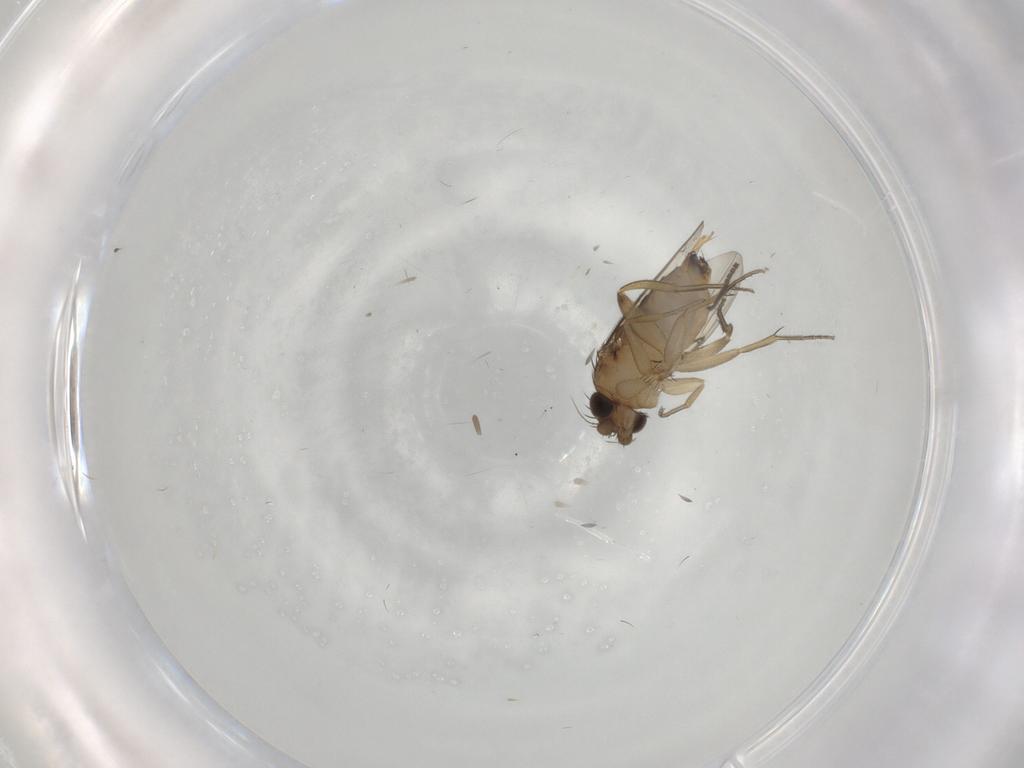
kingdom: Animalia
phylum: Arthropoda
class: Insecta
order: Diptera
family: Phoridae
